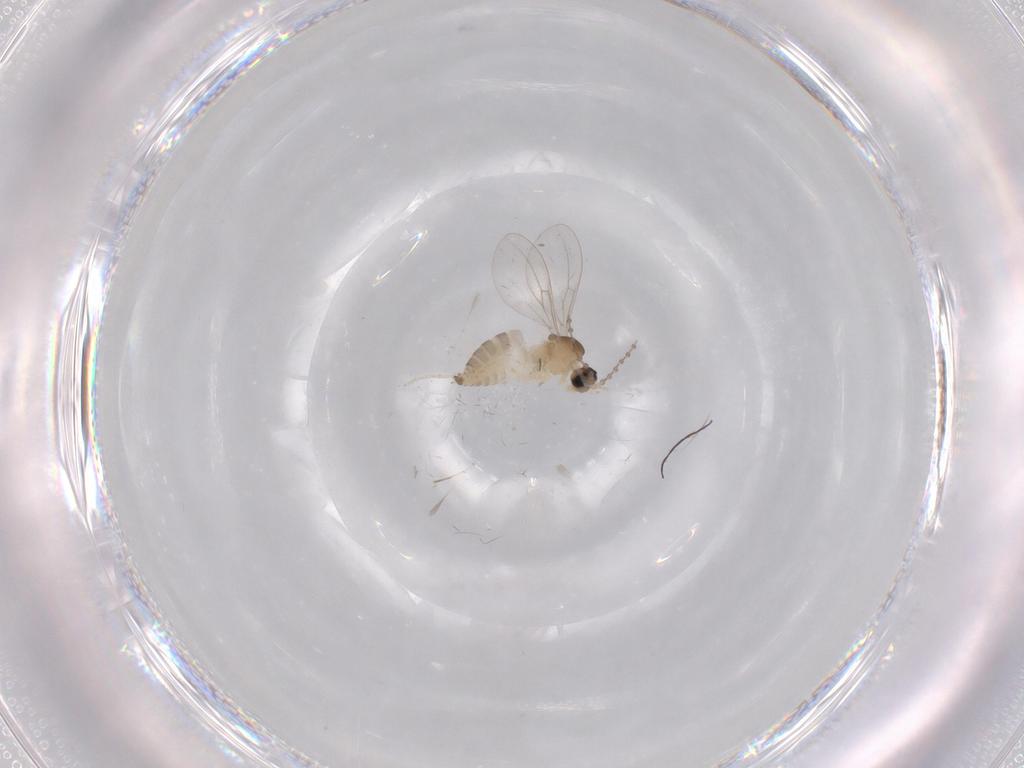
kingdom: Animalia
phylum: Arthropoda
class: Insecta
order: Diptera
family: Cecidomyiidae
